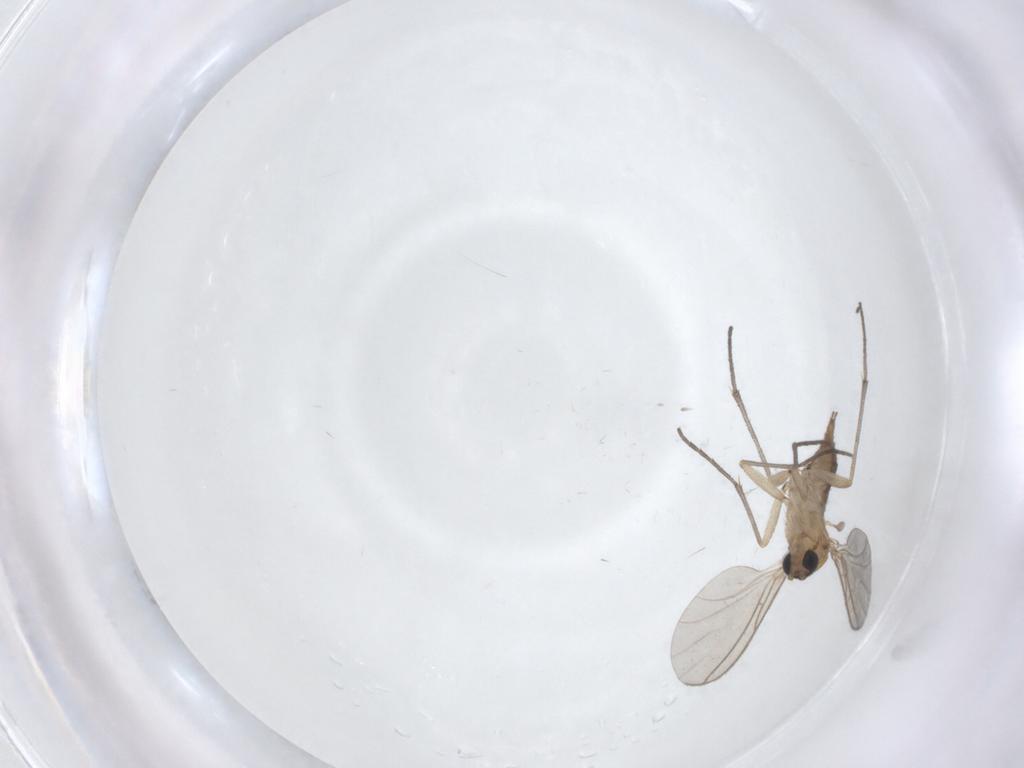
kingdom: Animalia
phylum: Arthropoda
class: Insecta
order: Diptera
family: Sciaridae
